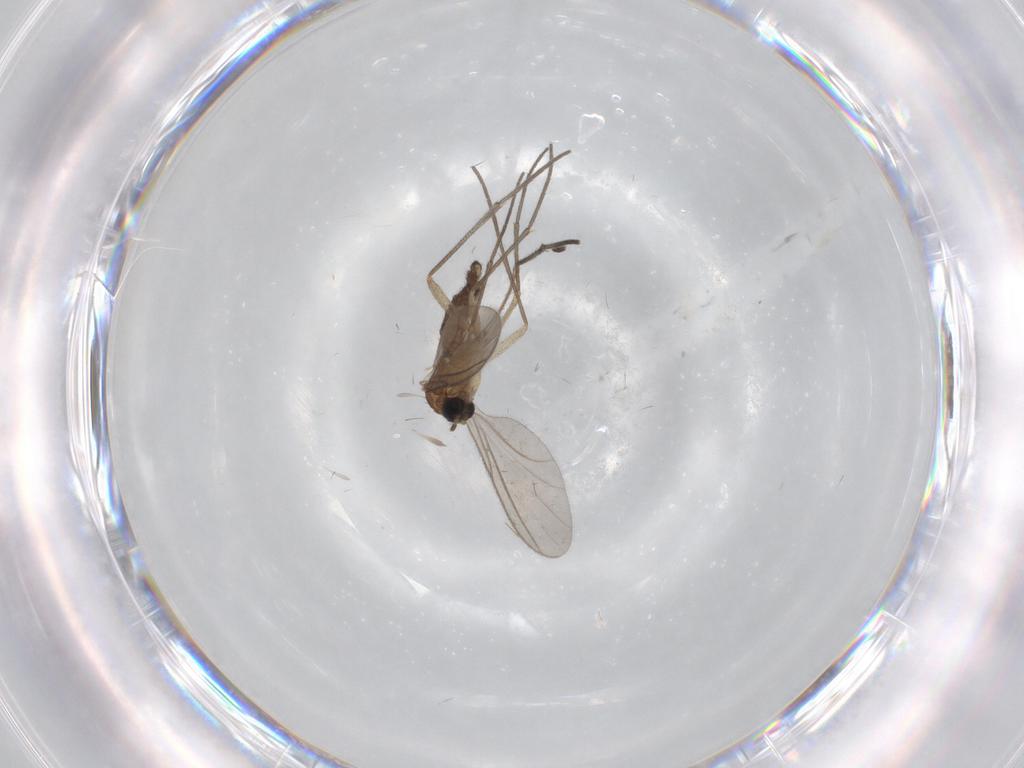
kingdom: Animalia
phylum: Arthropoda
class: Insecta
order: Diptera
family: Sciaridae
